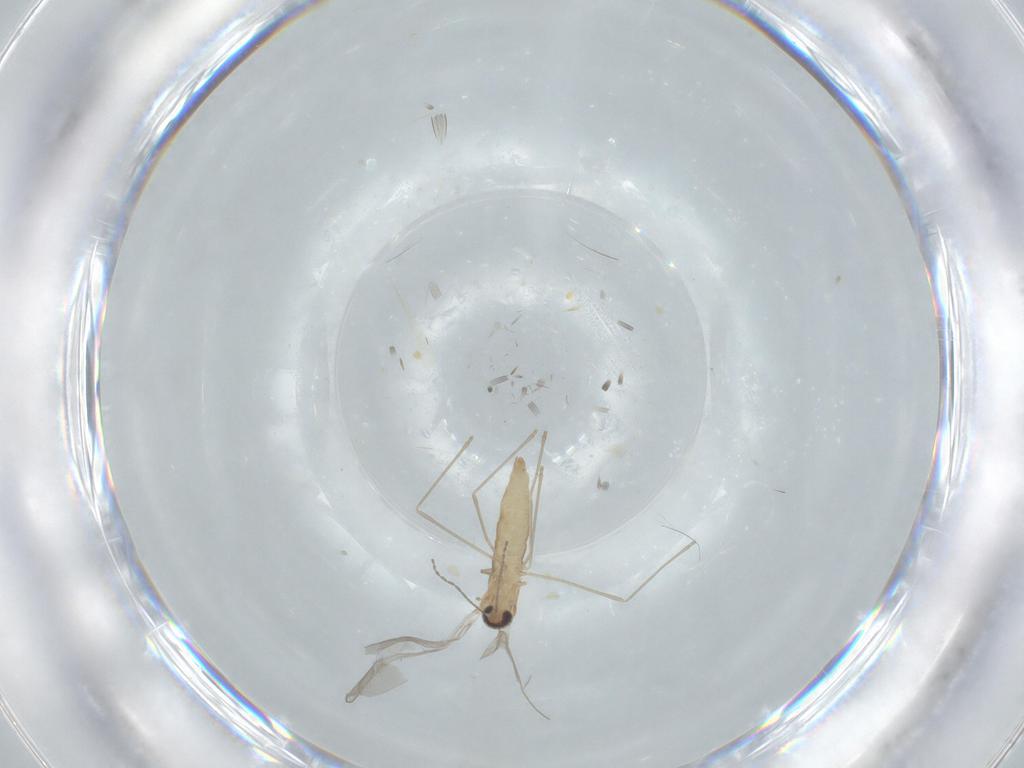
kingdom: Animalia
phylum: Arthropoda
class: Insecta
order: Diptera
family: Cecidomyiidae
